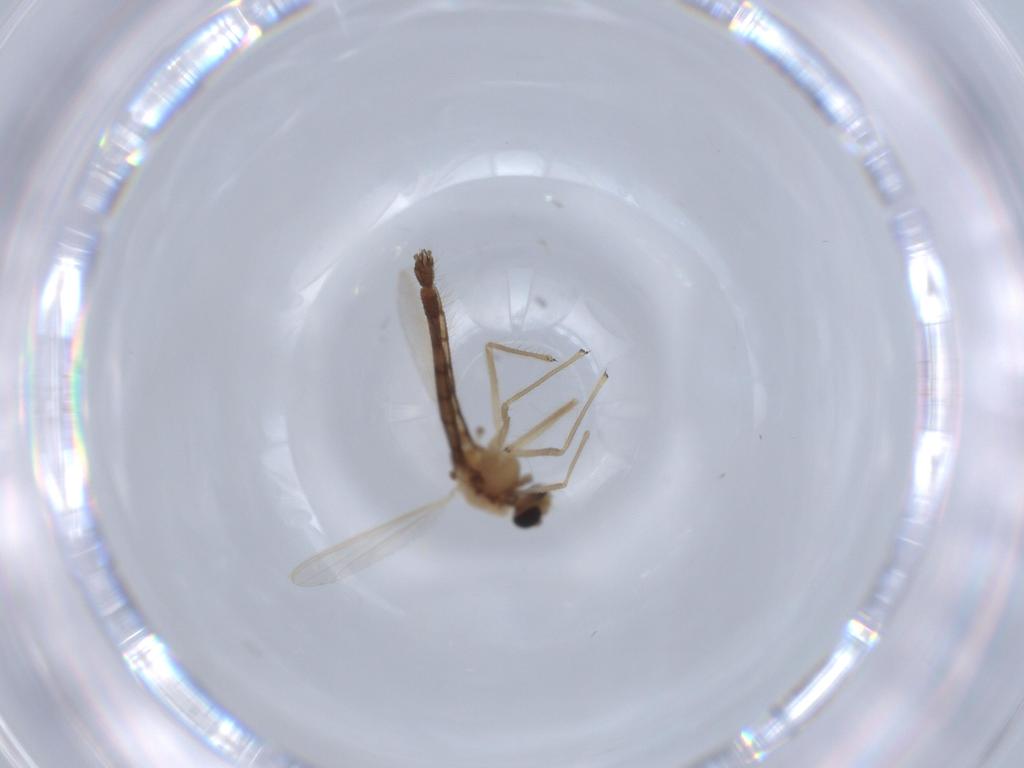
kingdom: Animalia
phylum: Arthropoda
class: Insecta
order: Diptera
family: Chironomidae
